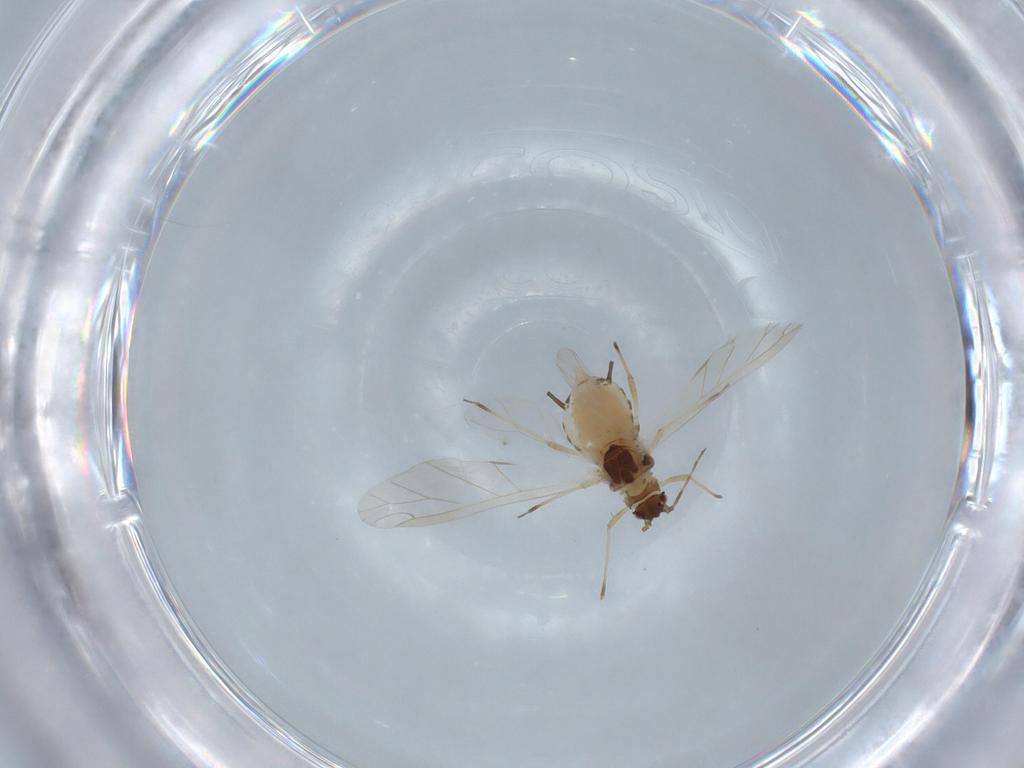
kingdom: Animalia
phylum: Arthropoda
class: Insecta
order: Hemiptera
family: Aphididae
